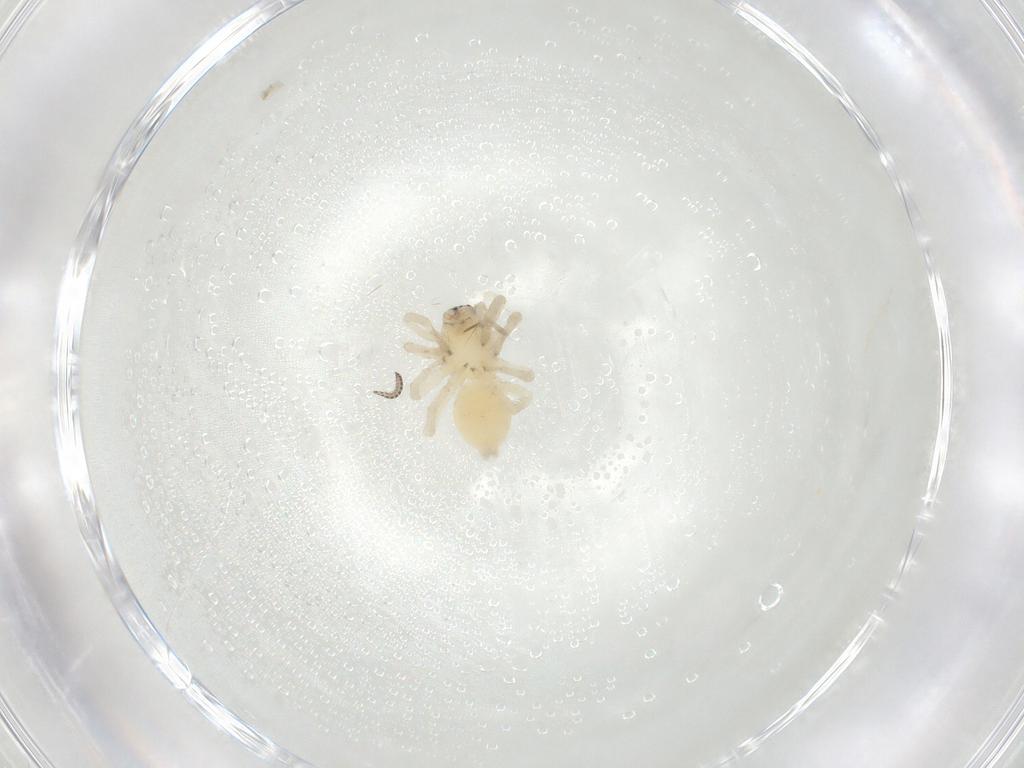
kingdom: Animalia
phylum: Arthropoda
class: Arachnida
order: Araneae
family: Clubionidae
